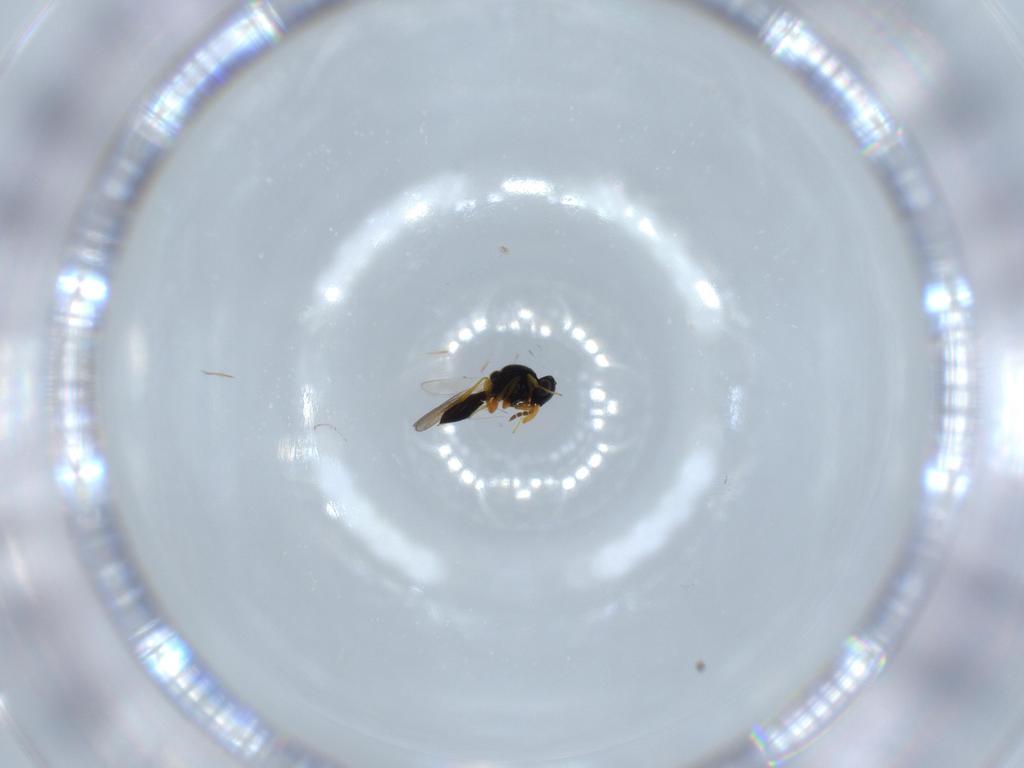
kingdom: Animalia
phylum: Arthropoda
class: Insecta
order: Hymenoptera
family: Platygastridae
